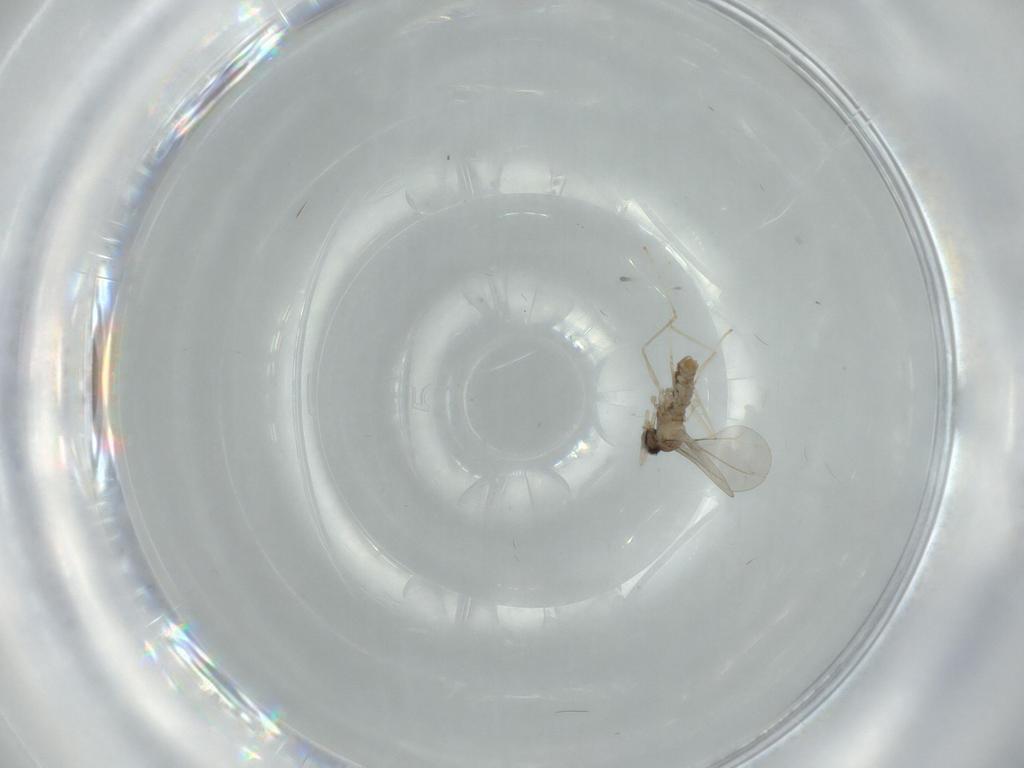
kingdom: Animalia
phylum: Arthropoda
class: Insecta
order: Diptera
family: Cecidomyiidae
